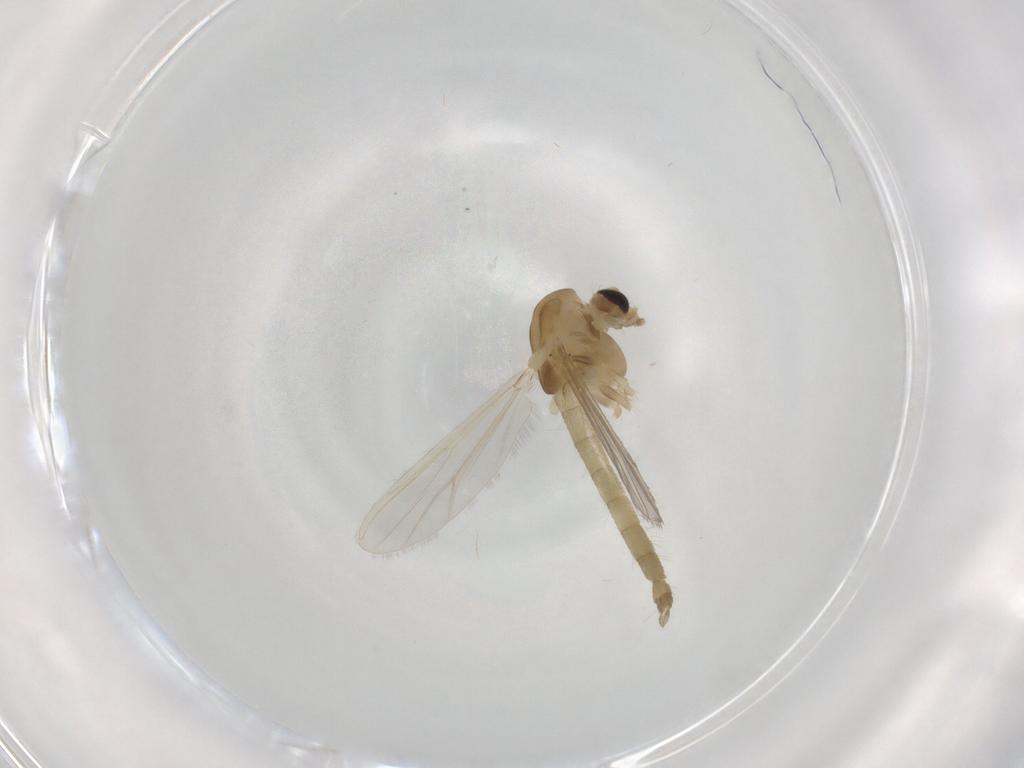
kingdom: Animalia
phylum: Arthropoda
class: Insecta
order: Diptera
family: Chironomidae
